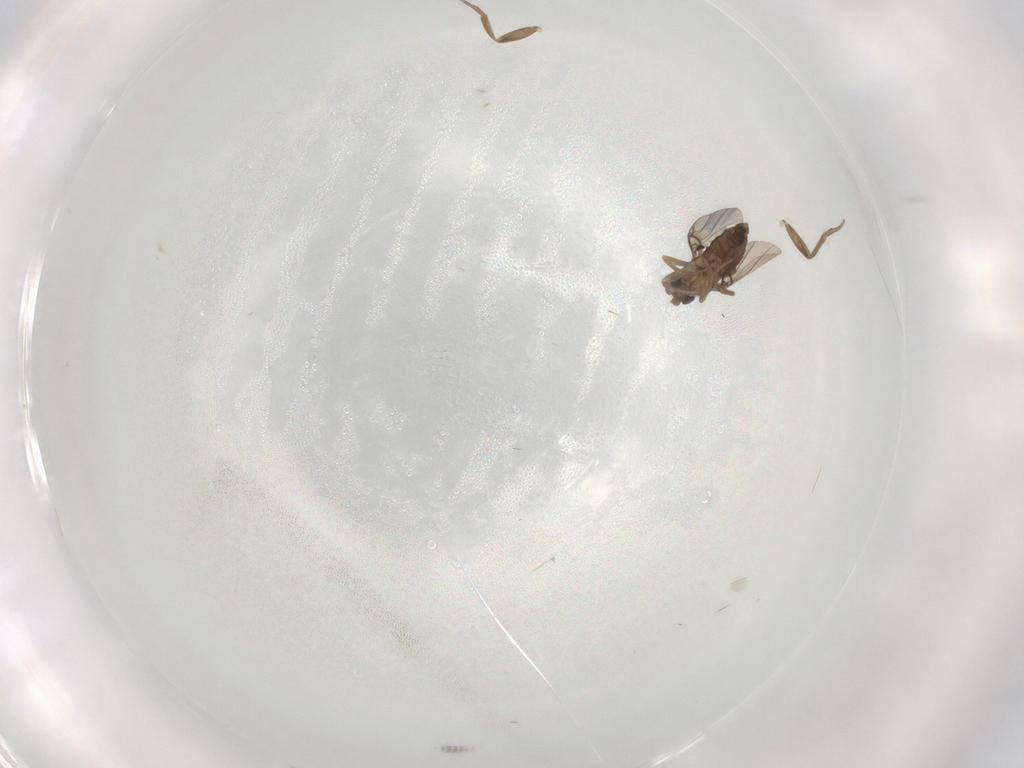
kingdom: Animalia
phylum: Arthropoda
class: Insecta
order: Diptera
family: Phoridae
